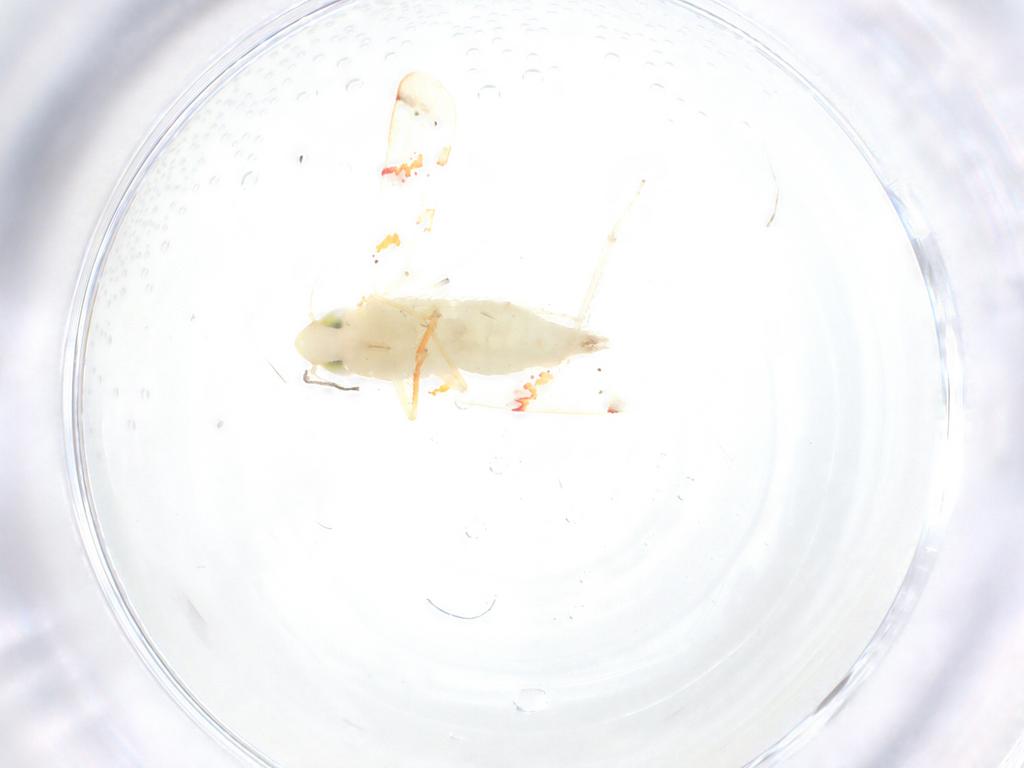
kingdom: Animalia
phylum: Arthropoda
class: Insecta
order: Hemiptera
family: Cicadellidae
